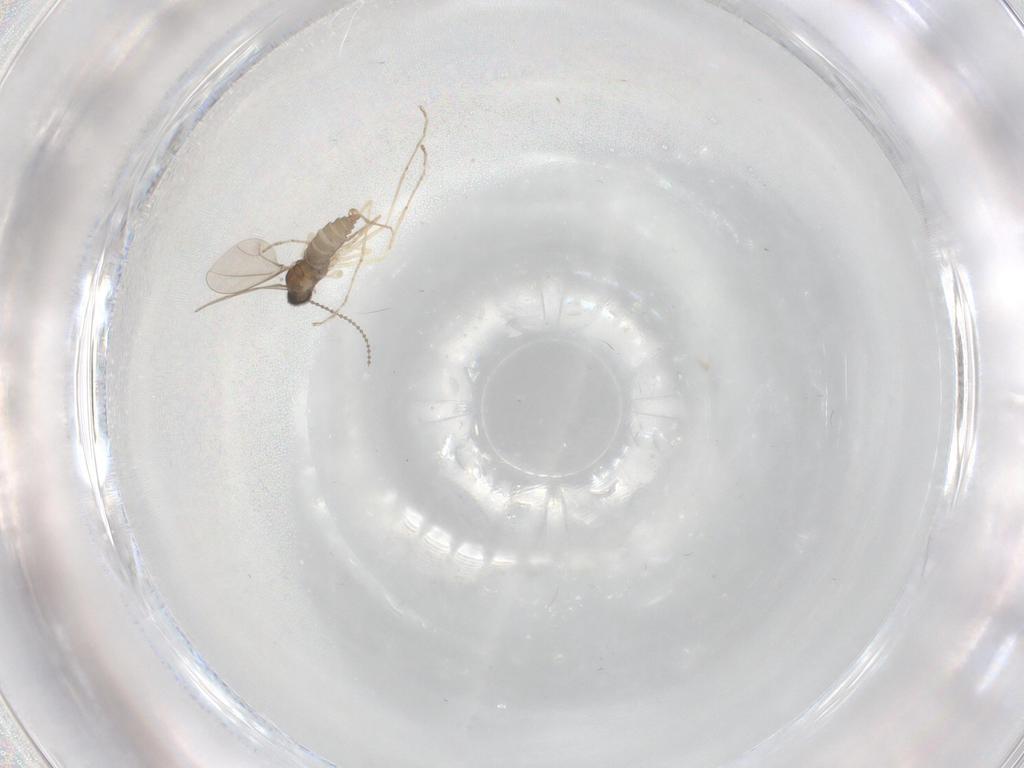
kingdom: Animalia
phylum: Arthropoda
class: Insecta
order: Diptera
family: Cecidomyiidae
